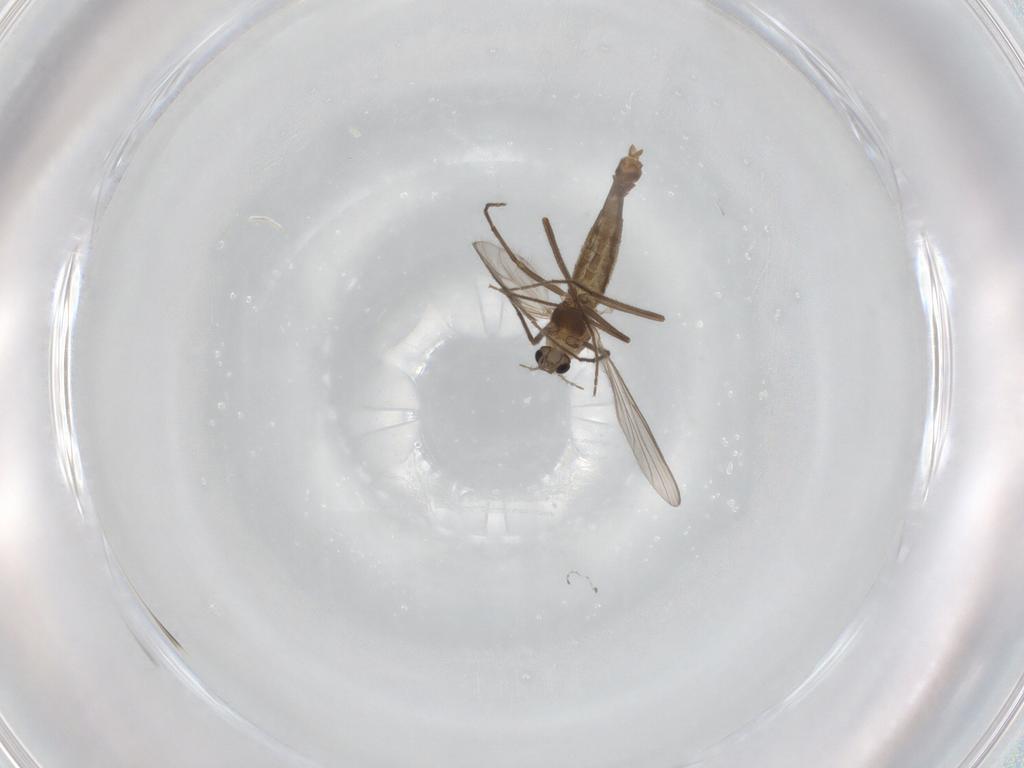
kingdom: Animalia
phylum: Arthropoda
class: Insecta
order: Diptera
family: Chironomidae
